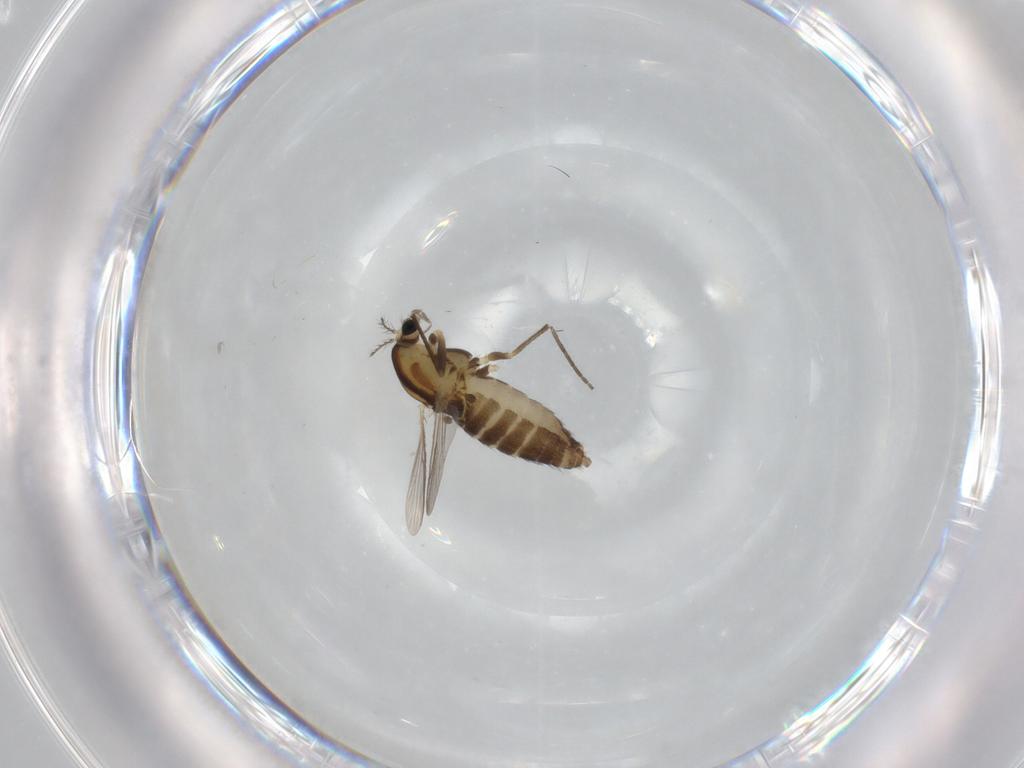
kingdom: Animalia
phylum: Arthropoda
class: Insecta
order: Diptera
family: Chironomidae
